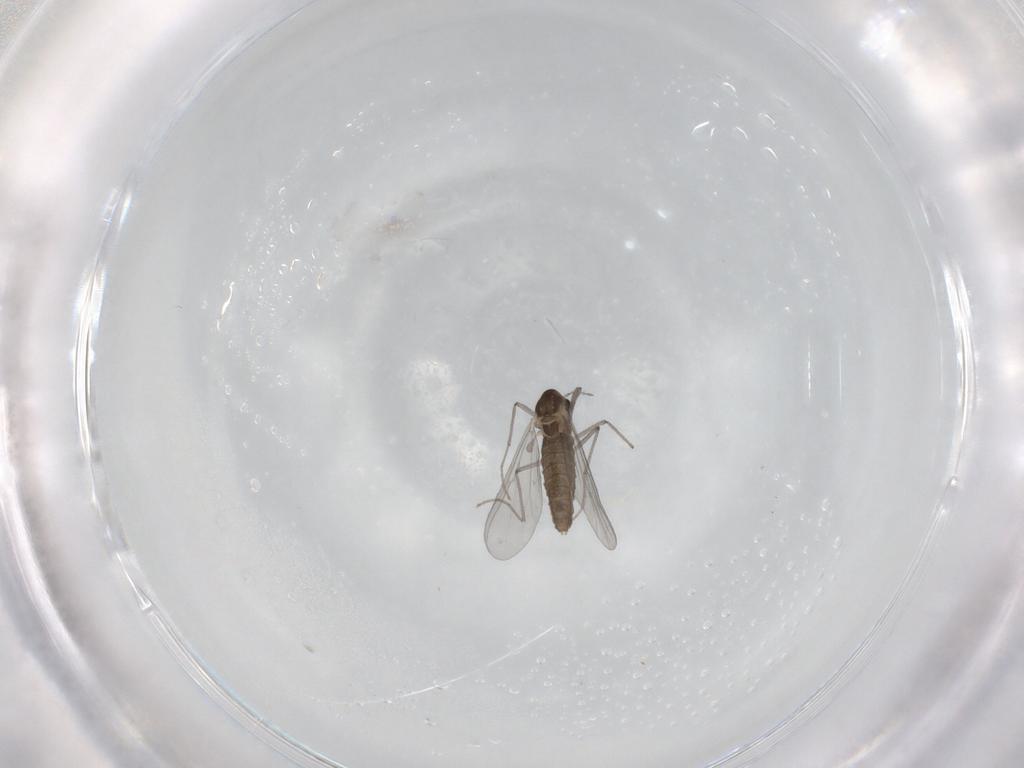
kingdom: Animalia
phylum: Arthropoda
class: Insecta
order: Diptera
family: Chironomidae
